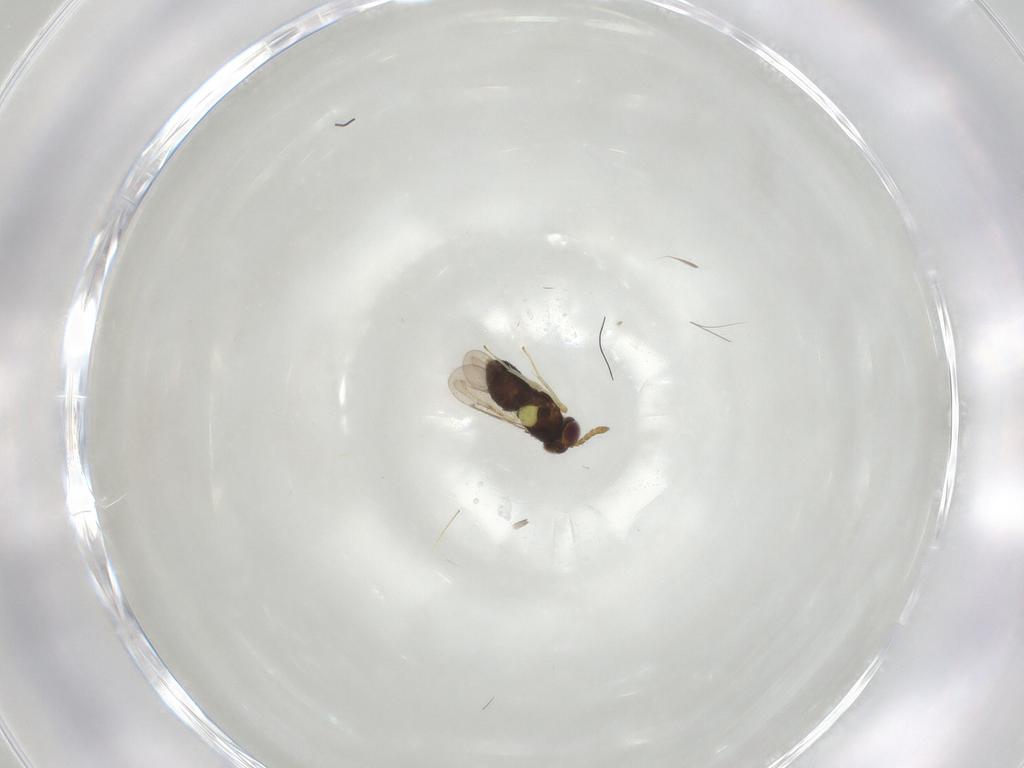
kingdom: Animalia
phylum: Arthropoda
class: Insecta
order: Hymenoptera
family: Aphelinidae
